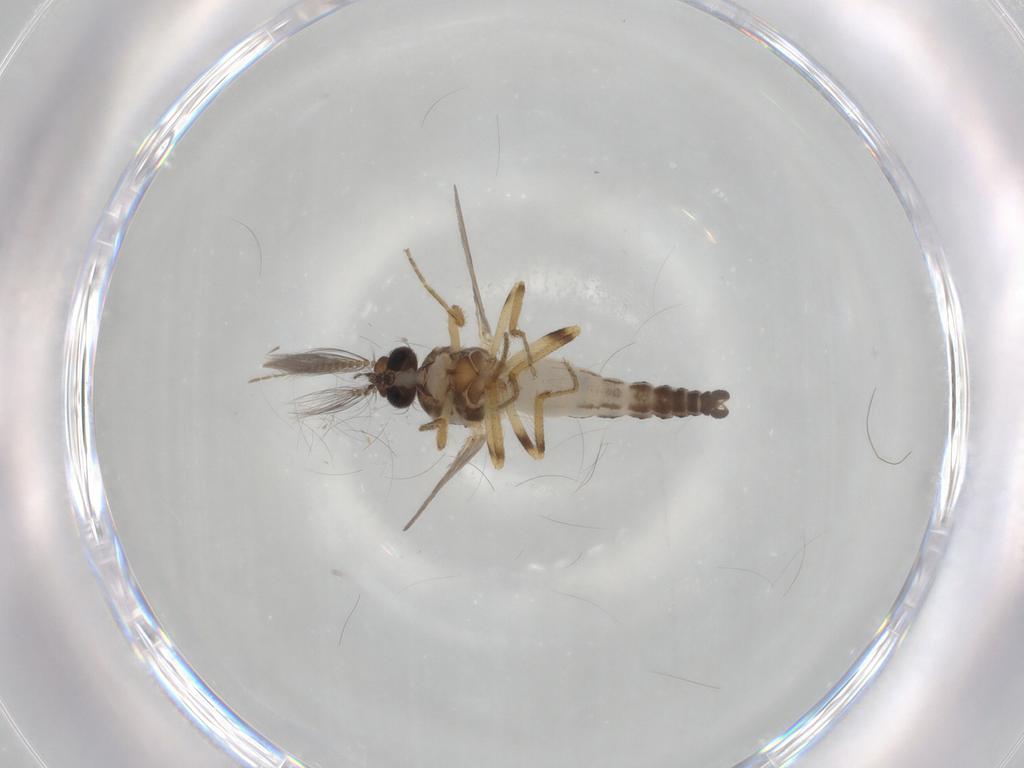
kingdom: Animalia
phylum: Arthropoda
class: Insecta
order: Diptera
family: Ceratopogonidae
